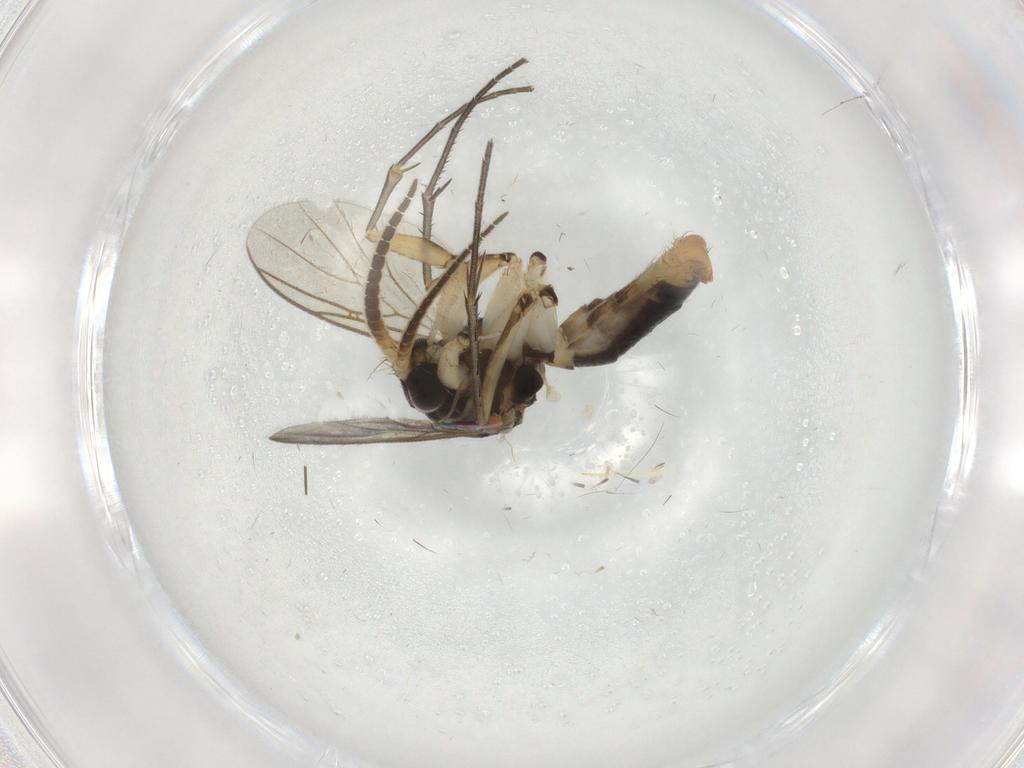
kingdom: Animalia
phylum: Arthropoda
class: Insecta
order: Diptera
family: Mycetophilidae
